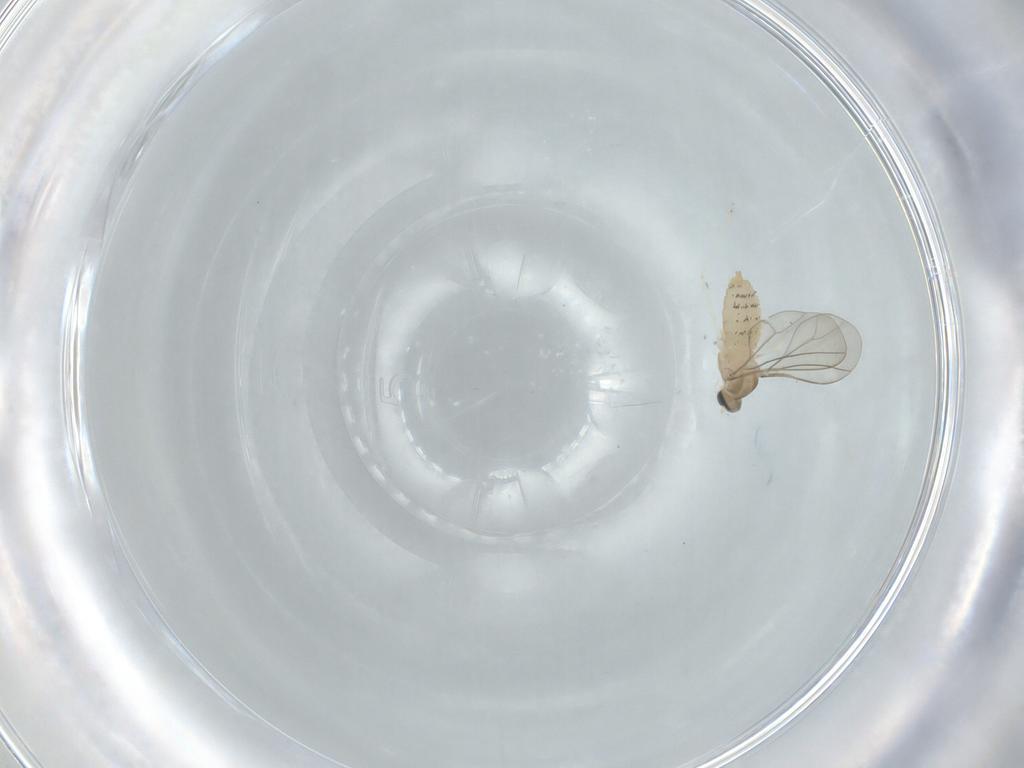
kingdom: Animalia
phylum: Arthropoda
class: Insecta
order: Diptera
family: Cecidomyiidae
